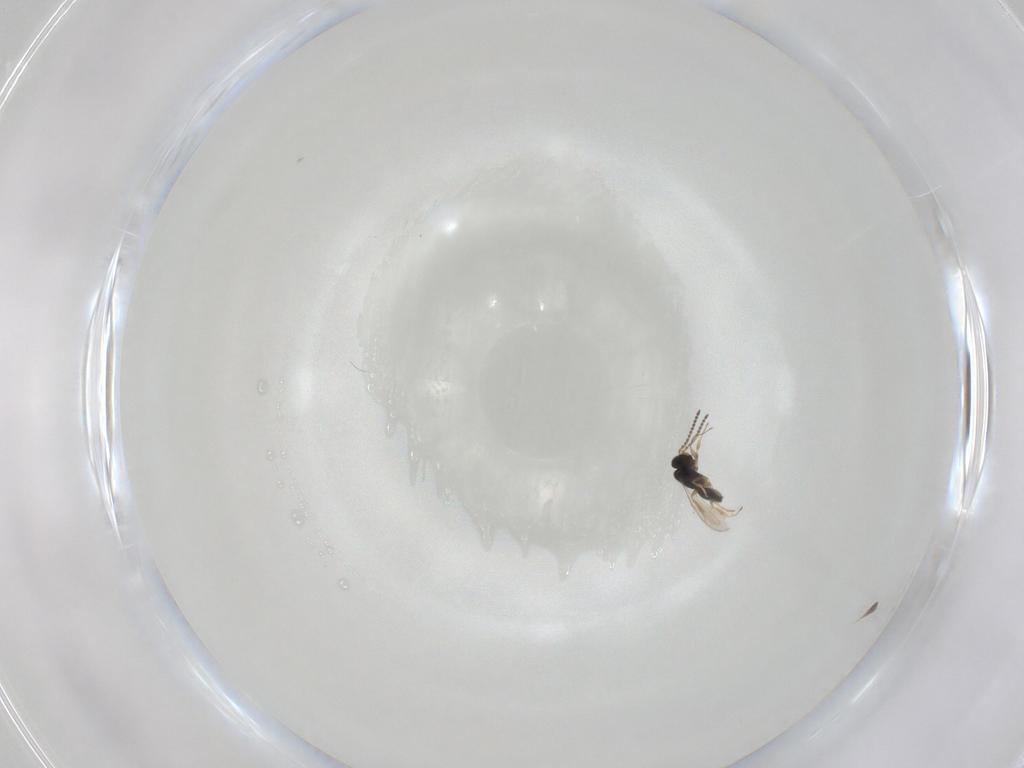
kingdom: Animalia
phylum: Arthropoda
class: Insecta
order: Hymenoptera
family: Scelionidae
